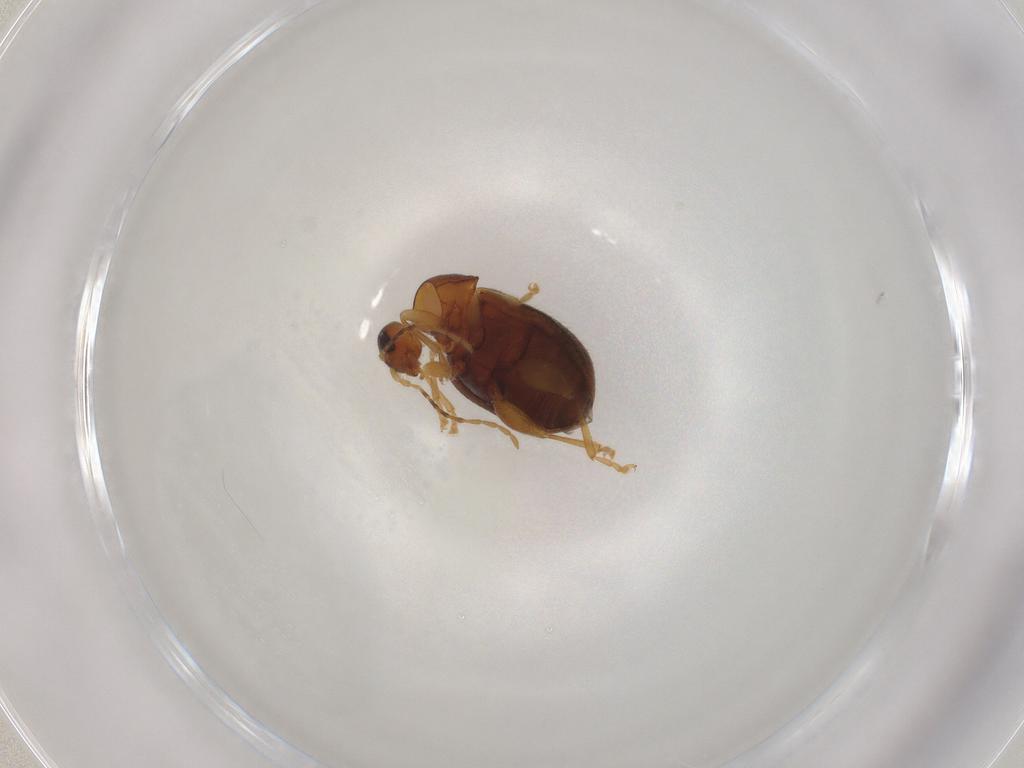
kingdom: Animalia
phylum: Arthropoda
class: Insecta
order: Coleoptera
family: Chrysomelidae
